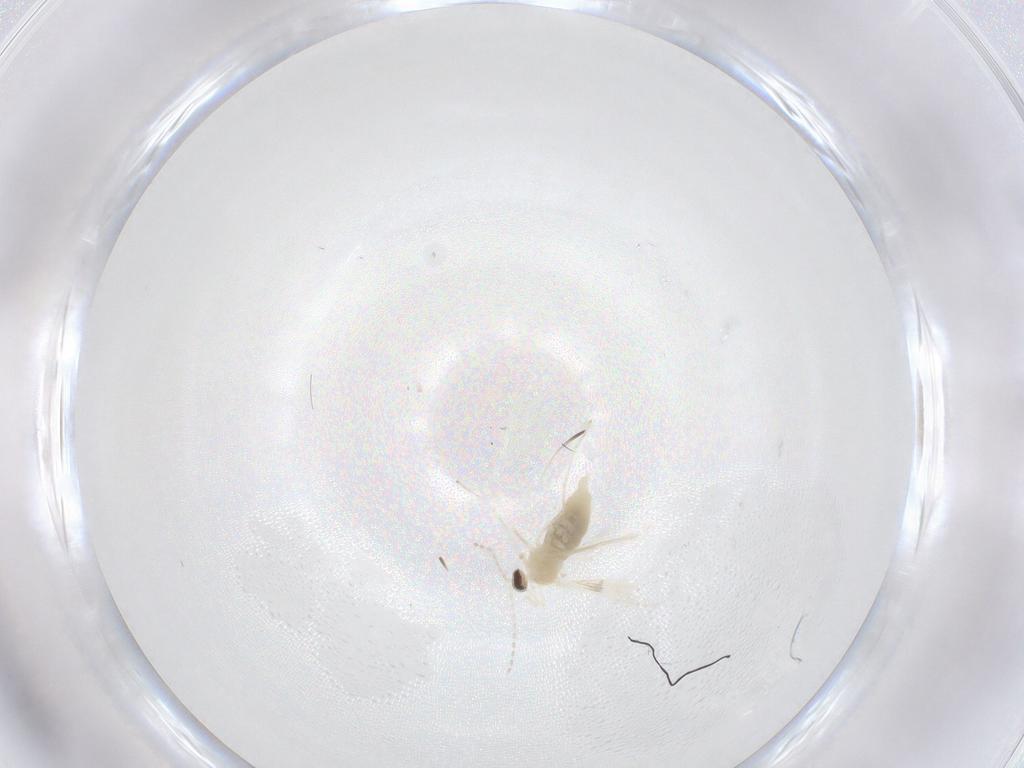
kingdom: Animalia
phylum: Arthropoda
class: Insecta
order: Diptera
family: Cecidomyiidae
